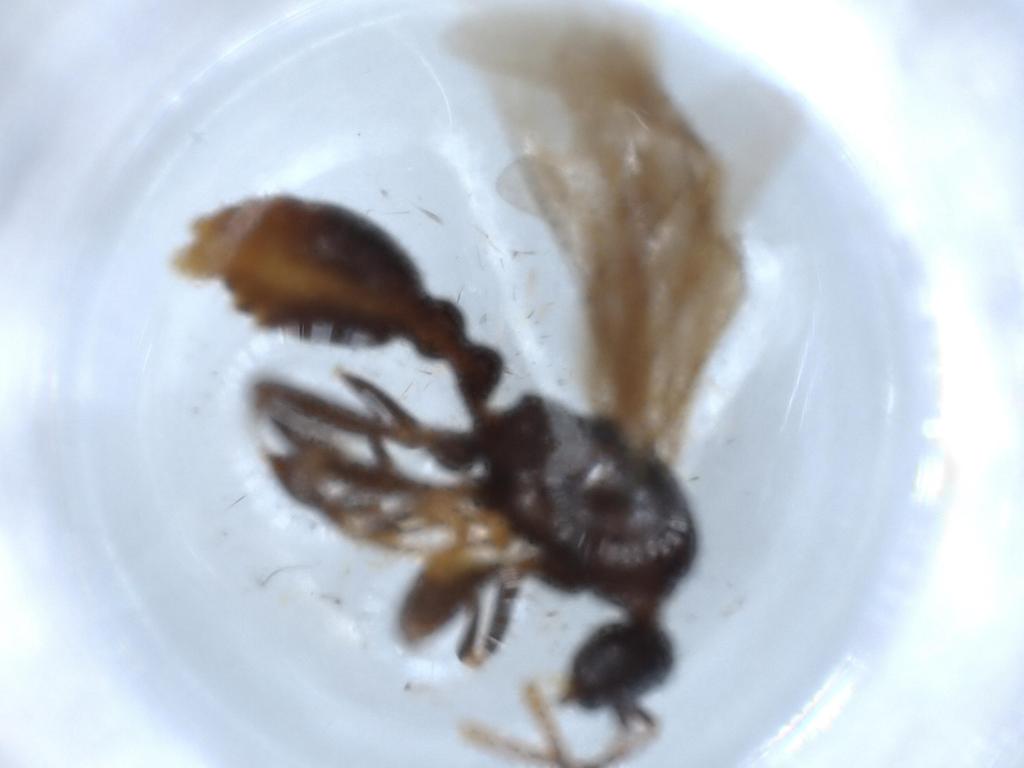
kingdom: Animalia
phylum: Arthropoda
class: Insecta
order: Hymenoptera
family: Formicidae
